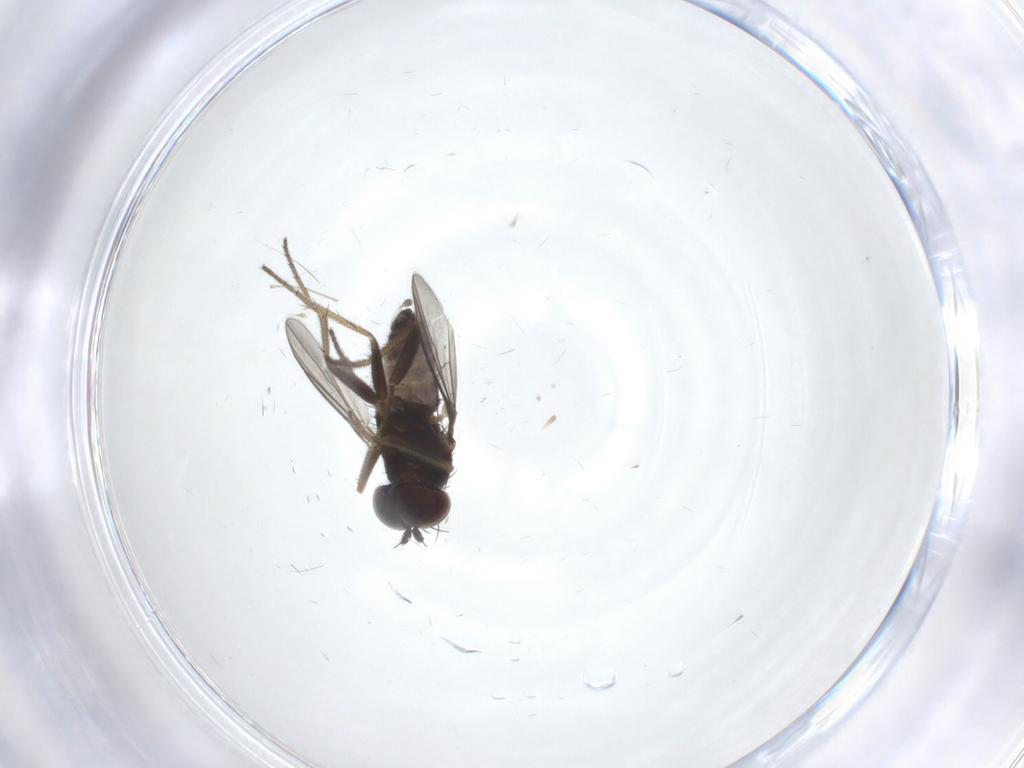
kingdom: Animalia
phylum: Arthropoda
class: Insecta
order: Diptera
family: Cecidomyiidae
